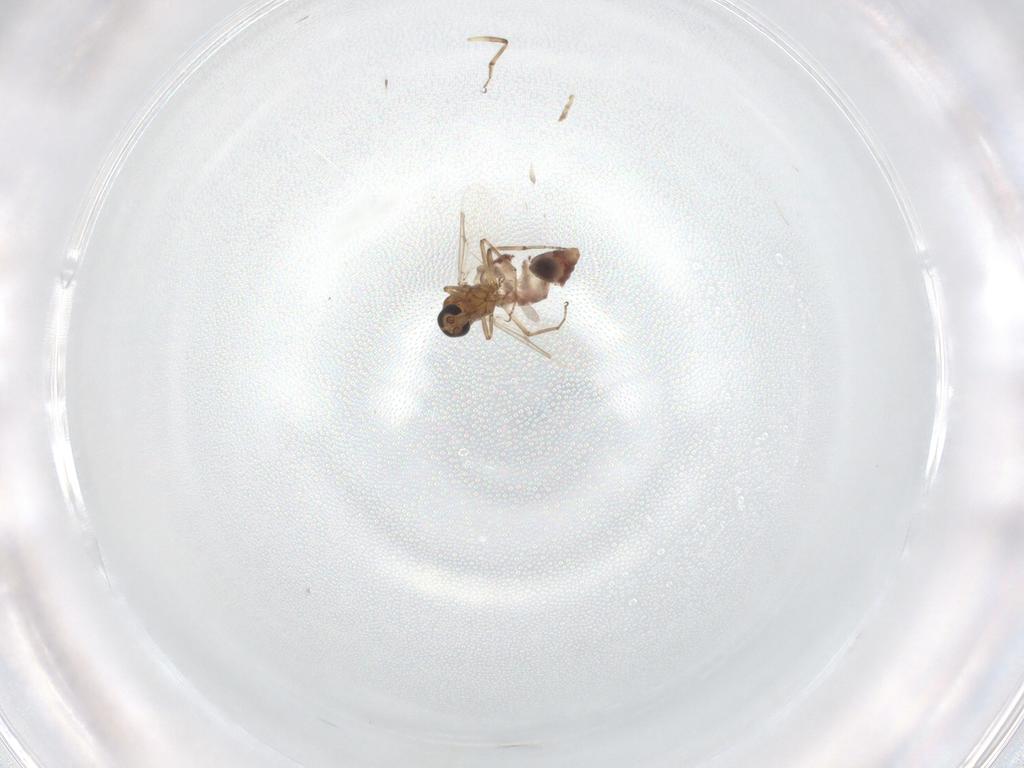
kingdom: Animalia
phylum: Arthropoda
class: Insecta
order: Diptera
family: Chironomidae
